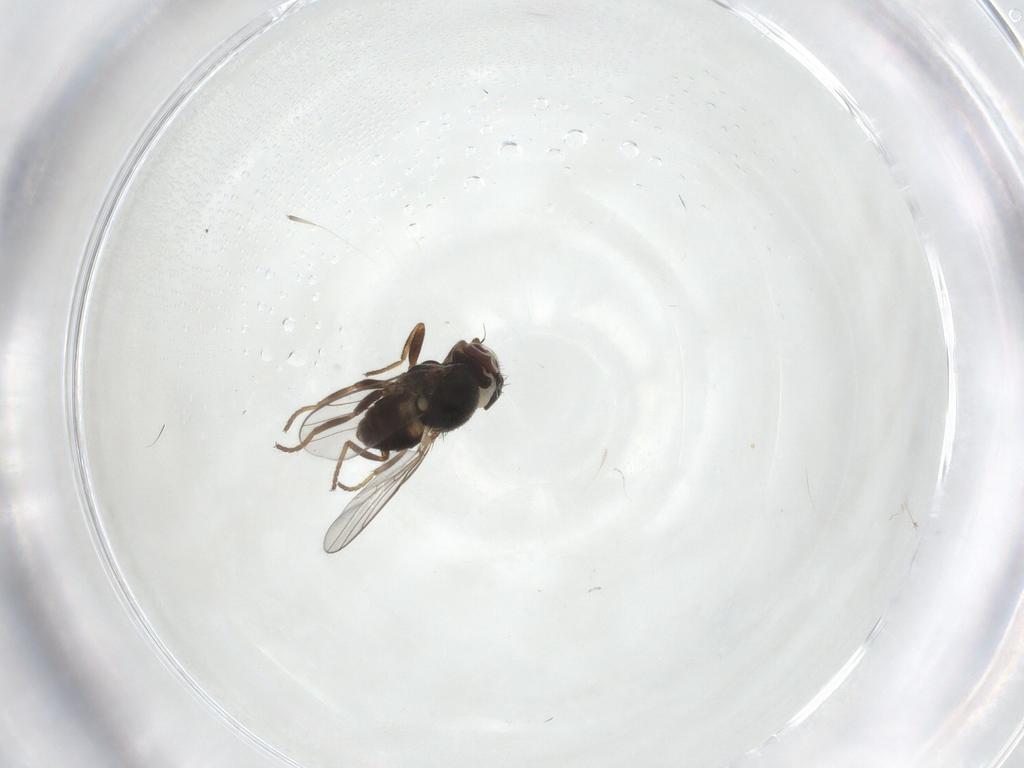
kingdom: Animalia
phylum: Arthropoda
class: Insecta
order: Diptera
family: Chloropidae
